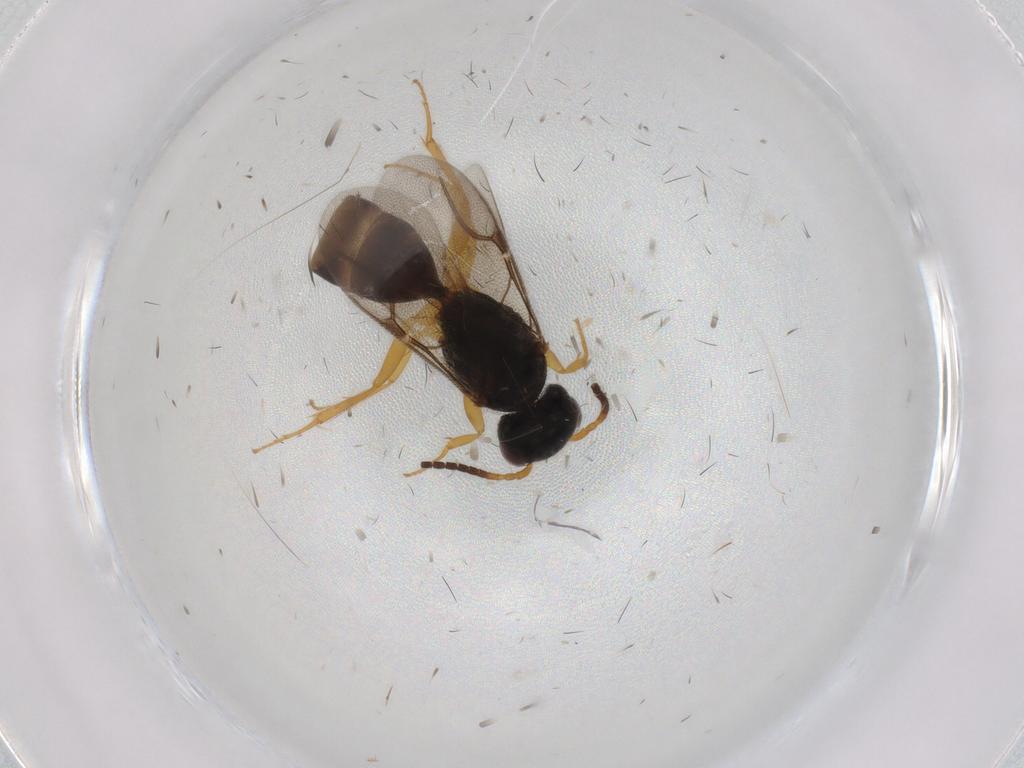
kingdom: Animalia
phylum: Arthropoda
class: Insecta
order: Hymenoptera
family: Bethylidae
